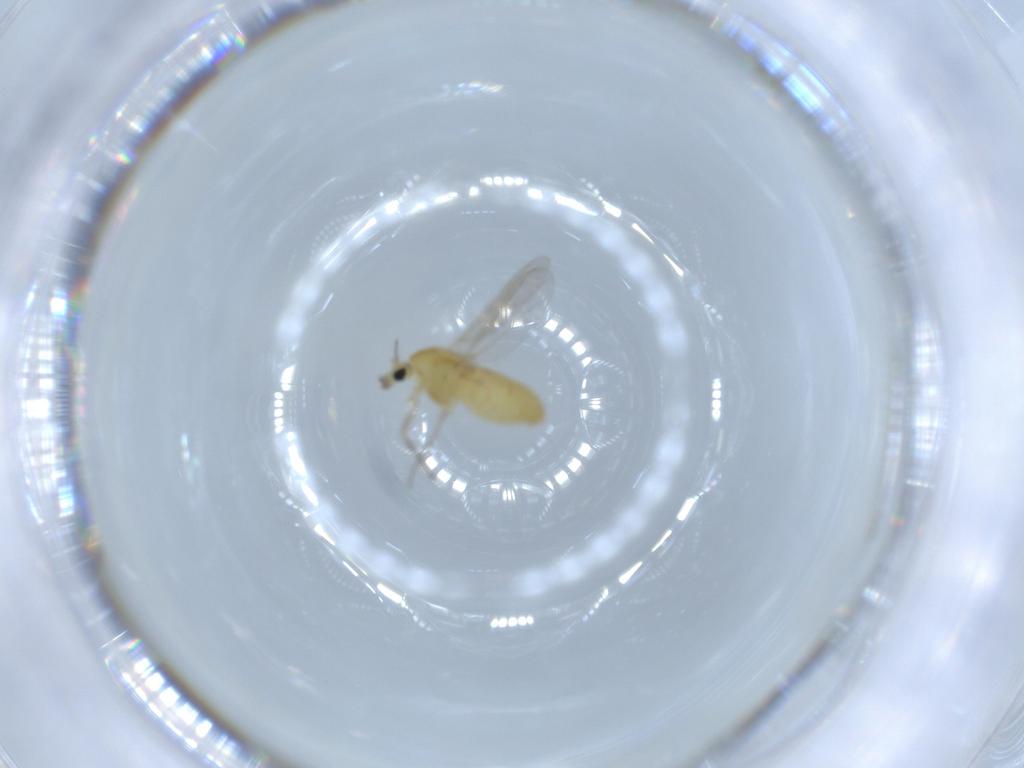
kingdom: Animalia
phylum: Arthropoda
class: Insecta
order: Diptera
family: Chironomidae
